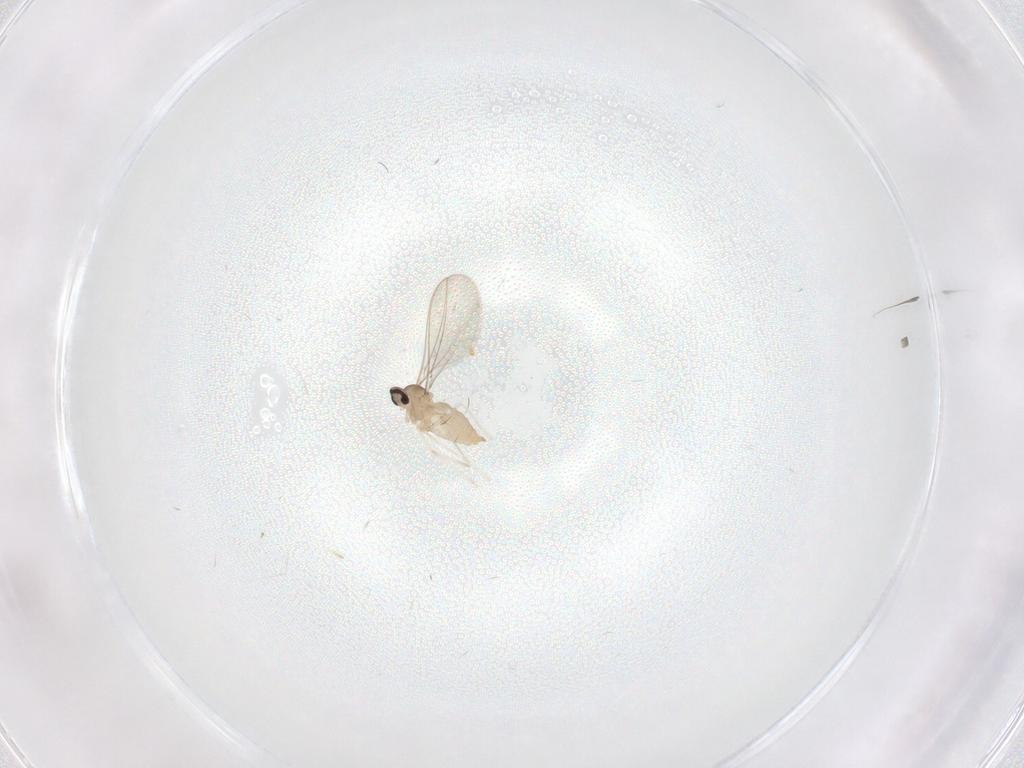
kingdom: Animalia
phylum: Arthropoda
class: Insecta
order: Diptera
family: Cecidomyiidae
